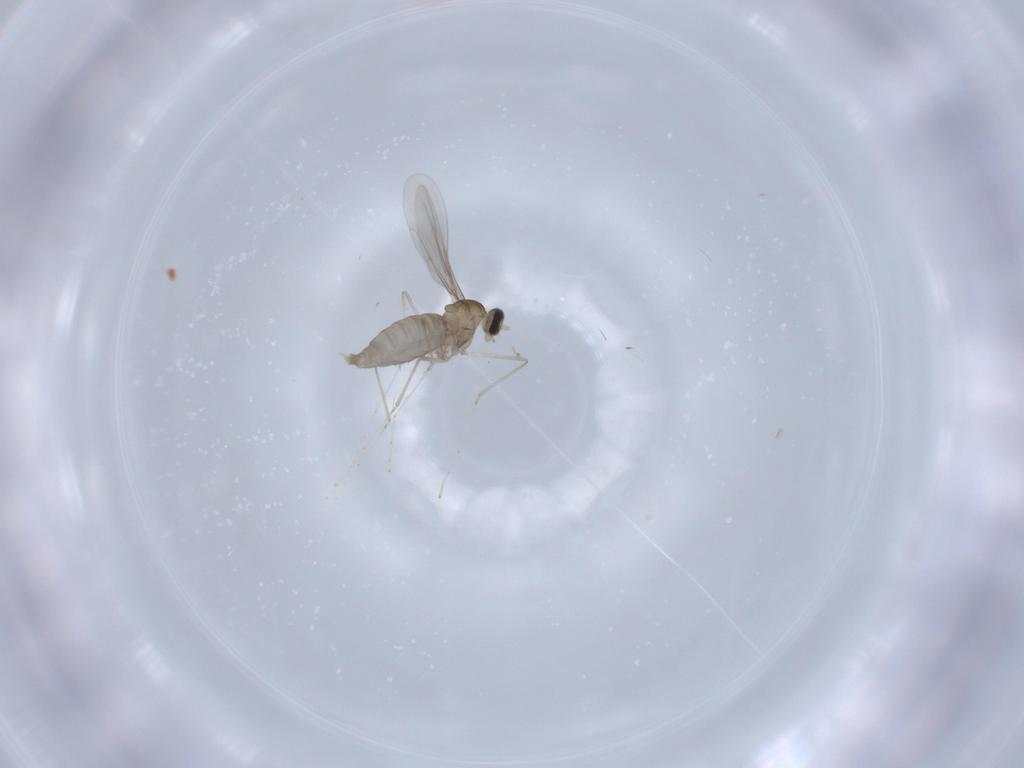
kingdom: Animalia
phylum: Arthropoda
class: Insecta
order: Diptera
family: Cecidomyiidae
